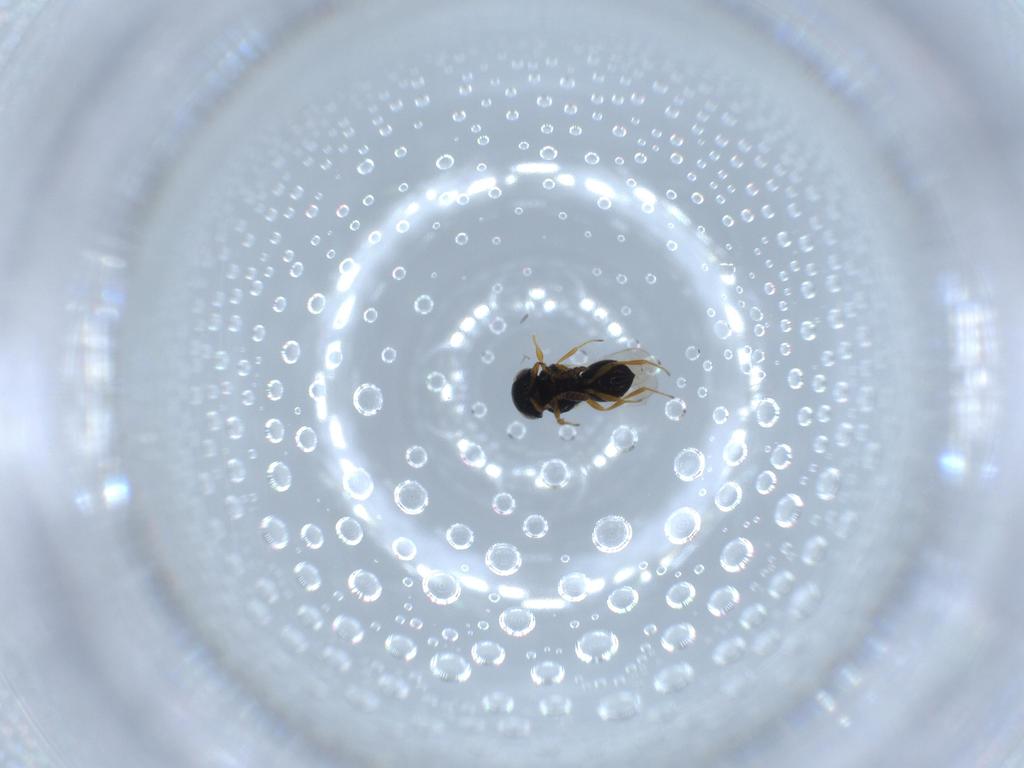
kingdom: Animalia
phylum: Arthropoda
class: Insecta
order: Hymenoptera
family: Scelionidae
